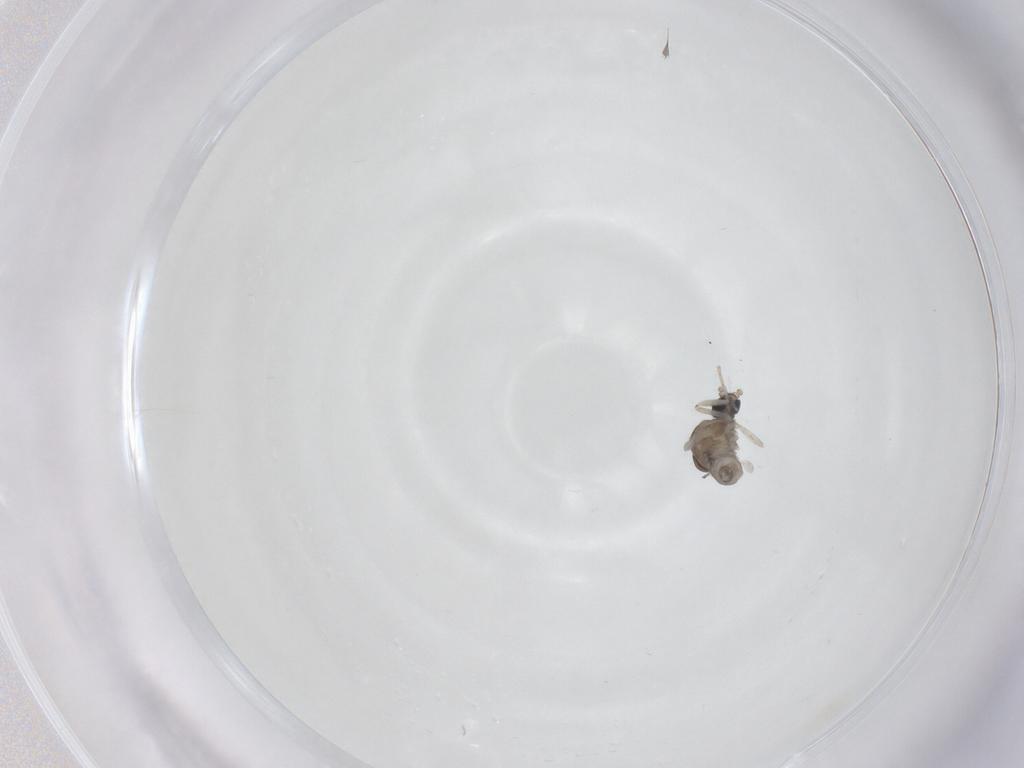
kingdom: Animalia
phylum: Arthropoda
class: Insecta
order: Diptera
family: Cecidomyiidae
